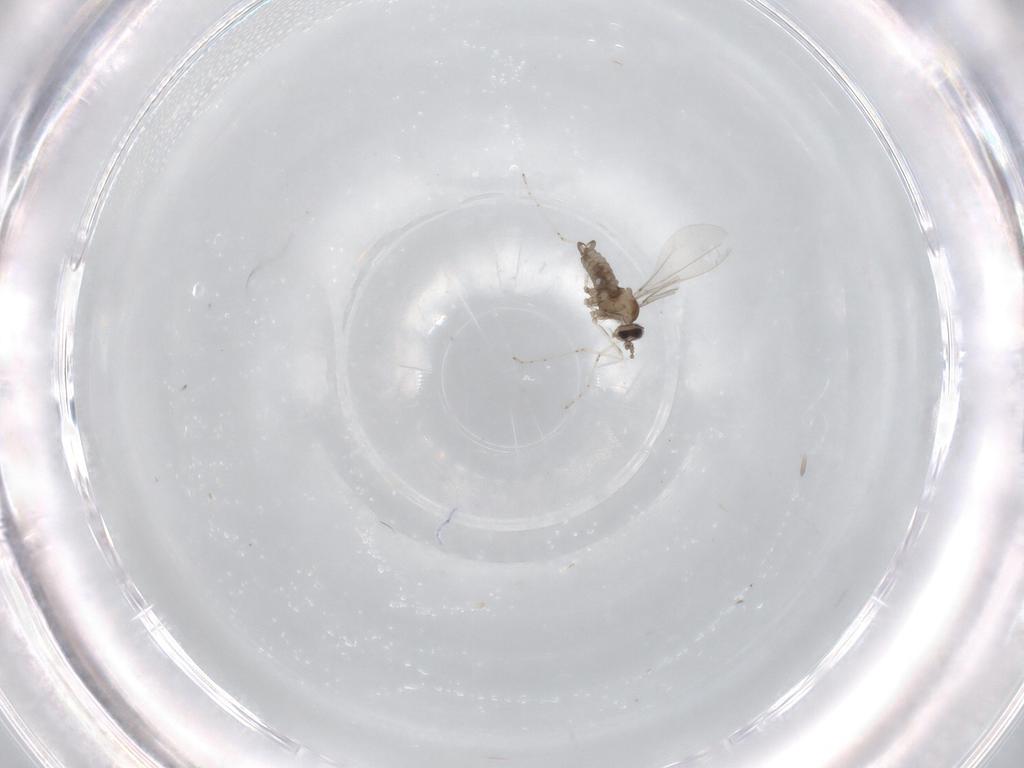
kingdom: Animalia
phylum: Arthropoda
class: Insecta
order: Diptera
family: Cecidomyiidae
